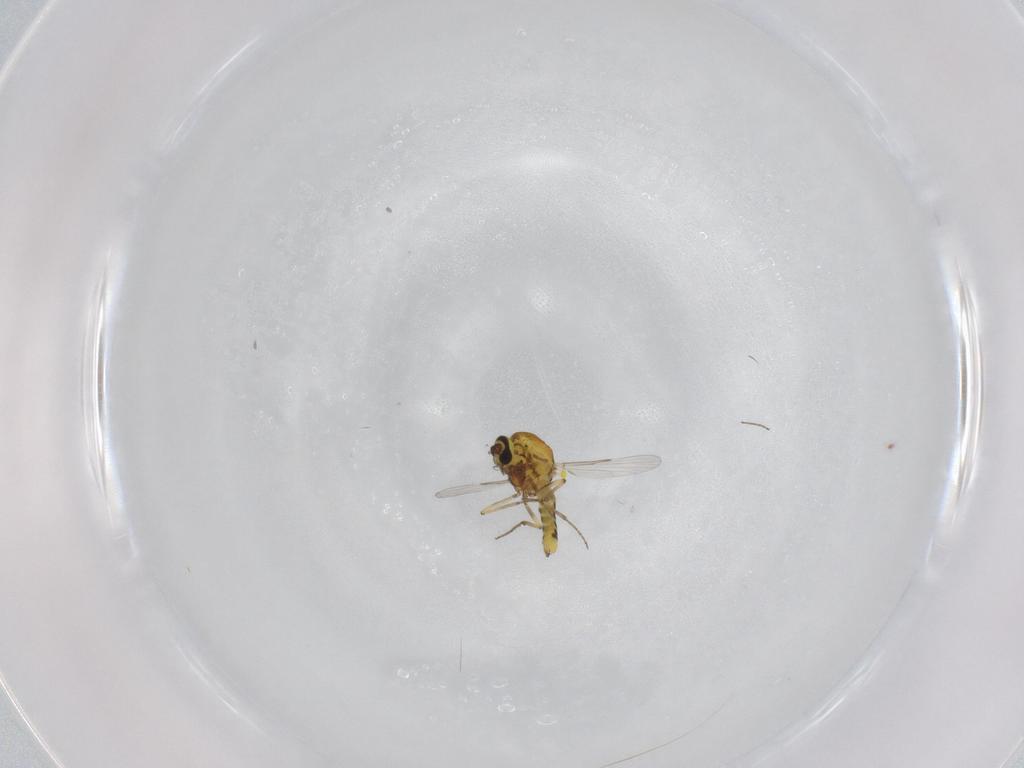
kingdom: Animalia
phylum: Arthropoda
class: Insecta
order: Diptera
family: Ceratopogonidae
